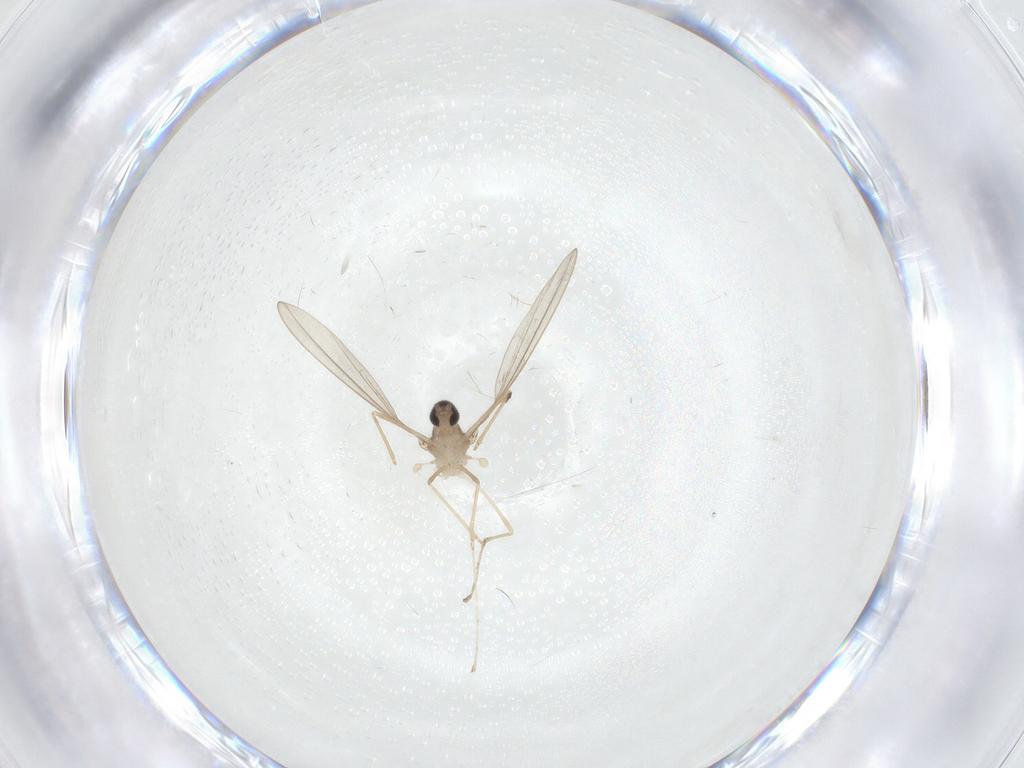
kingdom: Animalia
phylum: Arthropoda
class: Insecta
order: Diptera
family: Cecidomyiidae
